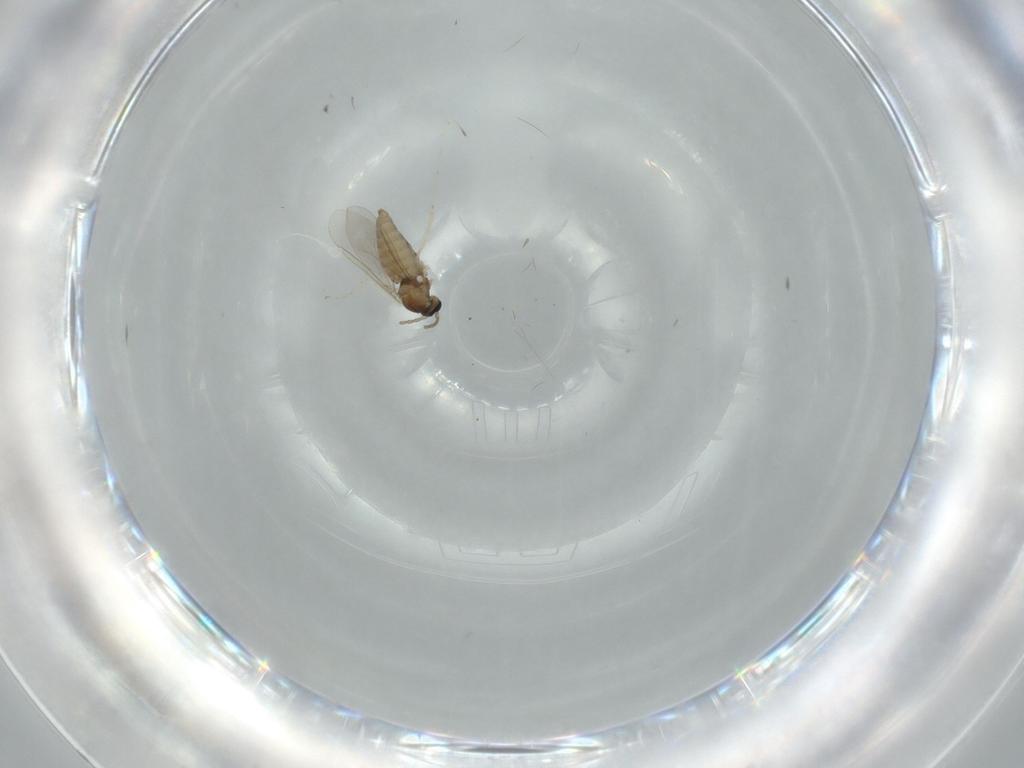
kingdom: Animalia
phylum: Arthropoda
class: Insecta
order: Diptera
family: Cecidomyiidae
